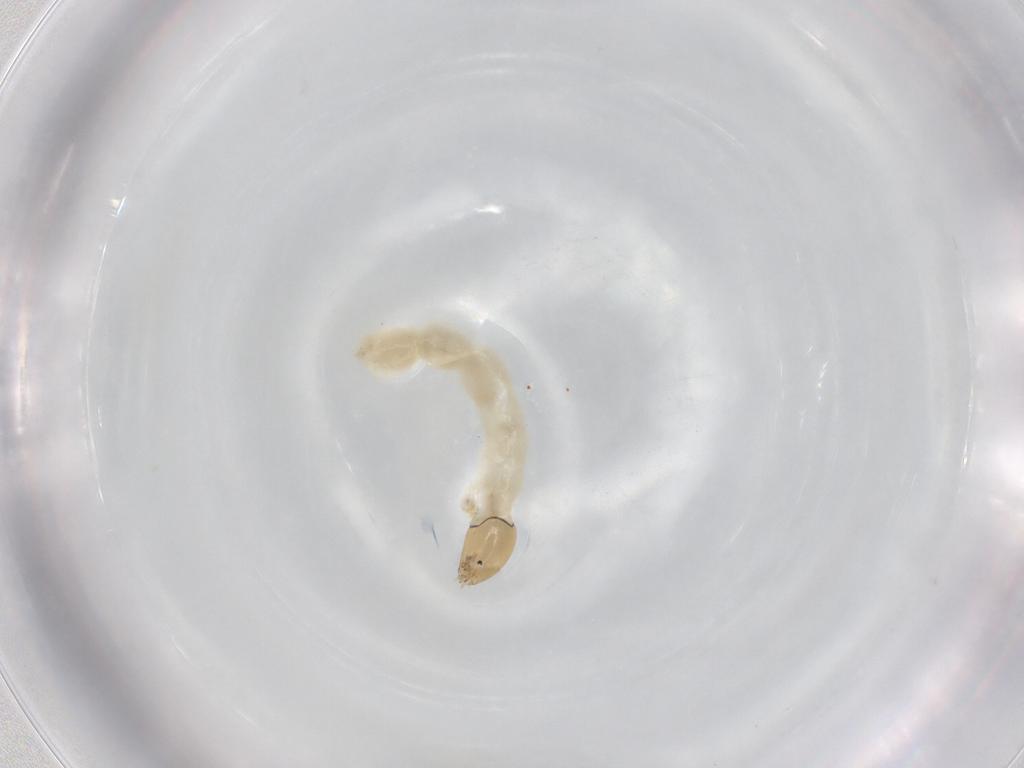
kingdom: Animalia
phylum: Arthropoda
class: Insecta
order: Diptera
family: Chironomidae
